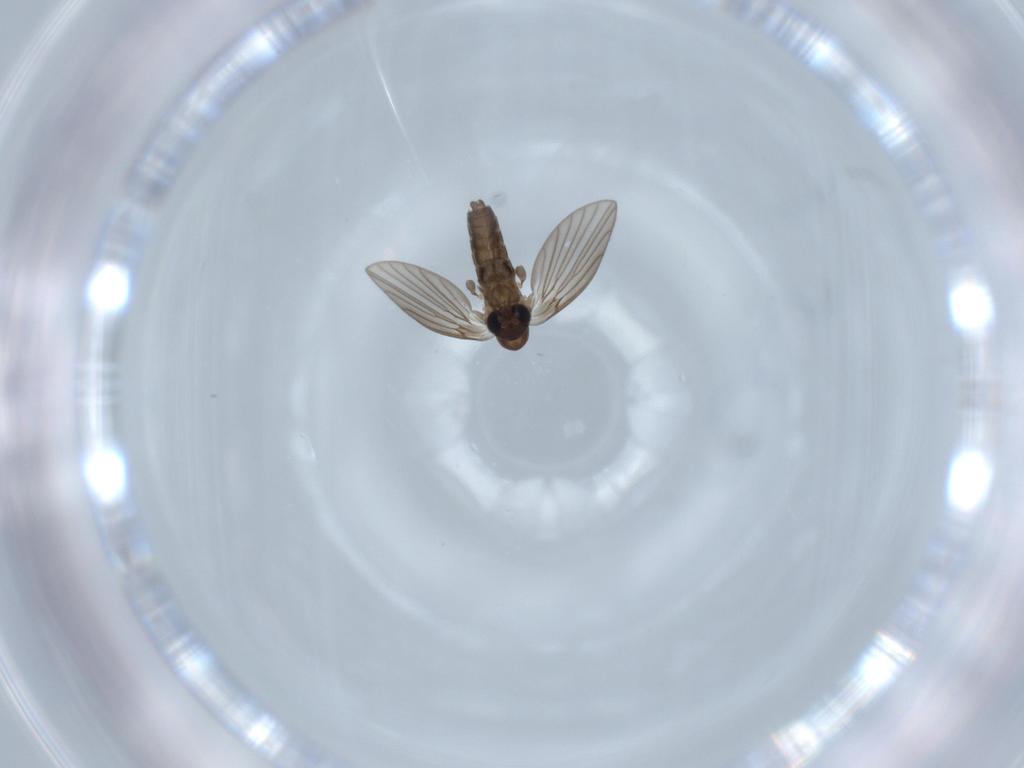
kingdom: Animalia
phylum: Arthropoda
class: Insecta
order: Diptera
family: Psychodidae
